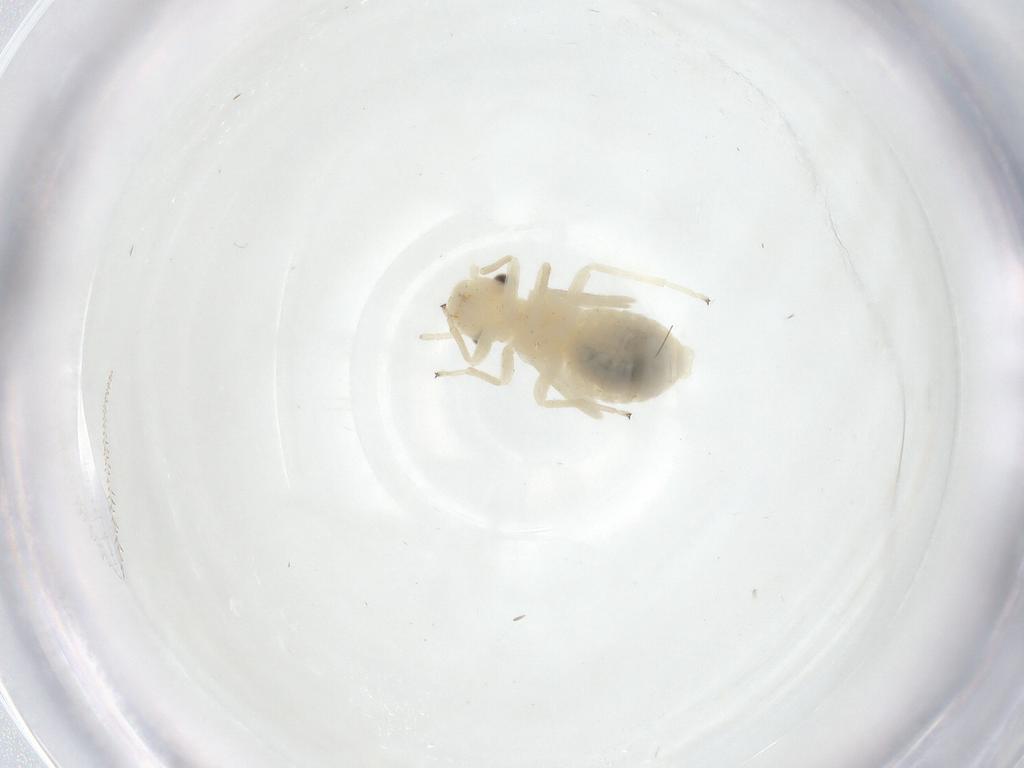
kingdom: Animalia
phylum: Arthropoda
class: Insecta
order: Psocodea
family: Caeciliusidae
